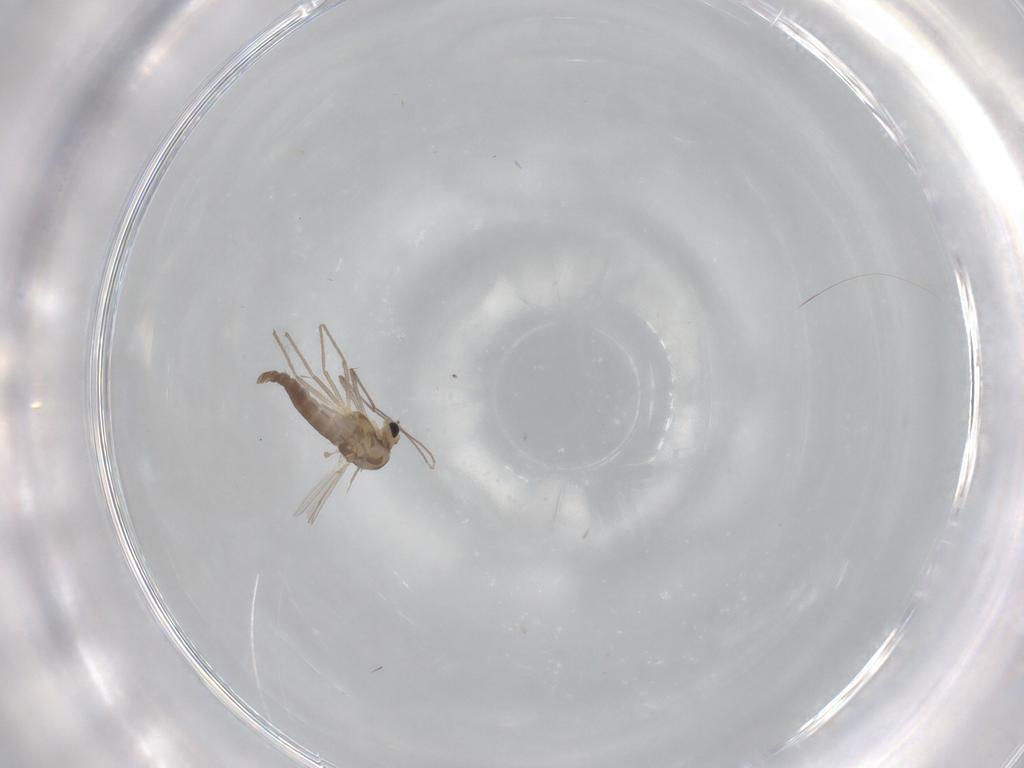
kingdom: Animalia
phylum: Arthropoda
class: Insecta
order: Diptera
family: Chironomidae
